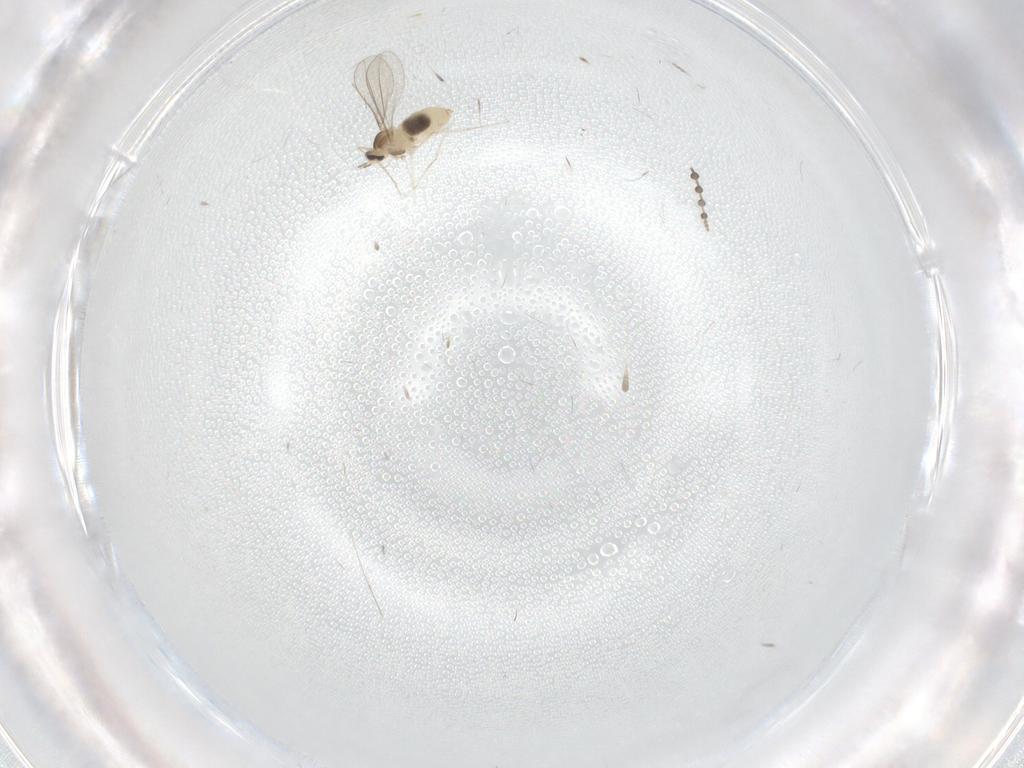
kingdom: Animalia
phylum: Arthropoda
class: Insecta
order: Diptera
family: Cecidomyiidae
